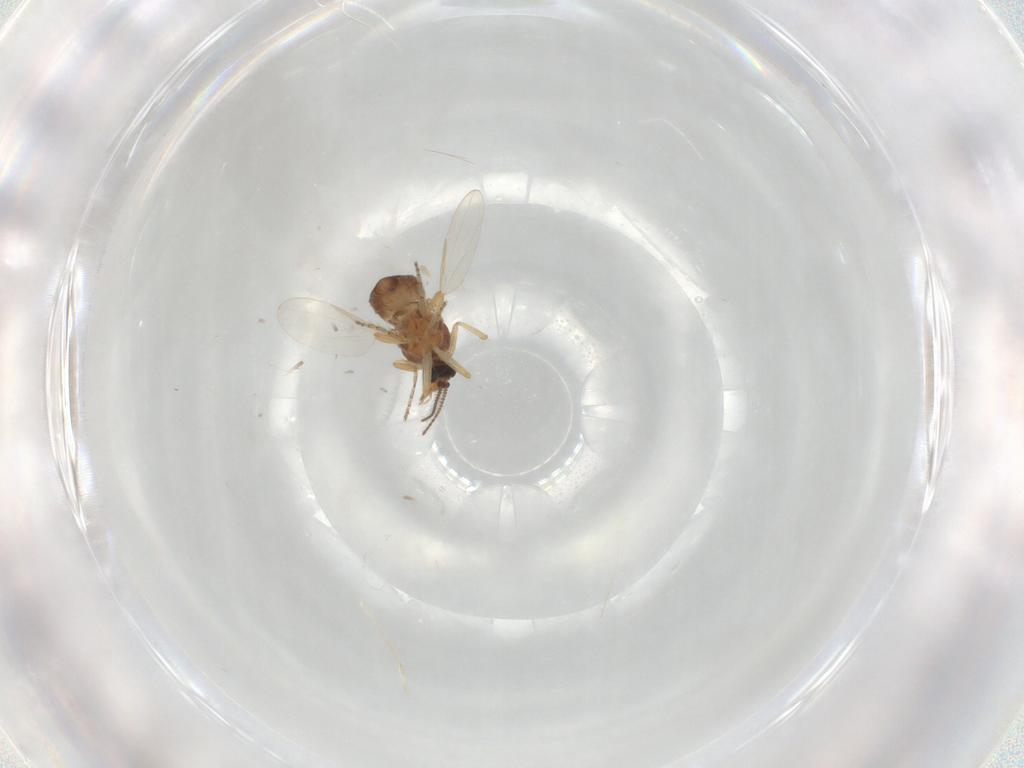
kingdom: Animalia
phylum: Arthropoda
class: Insecta
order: Diptera
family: Ceratopogonidae
